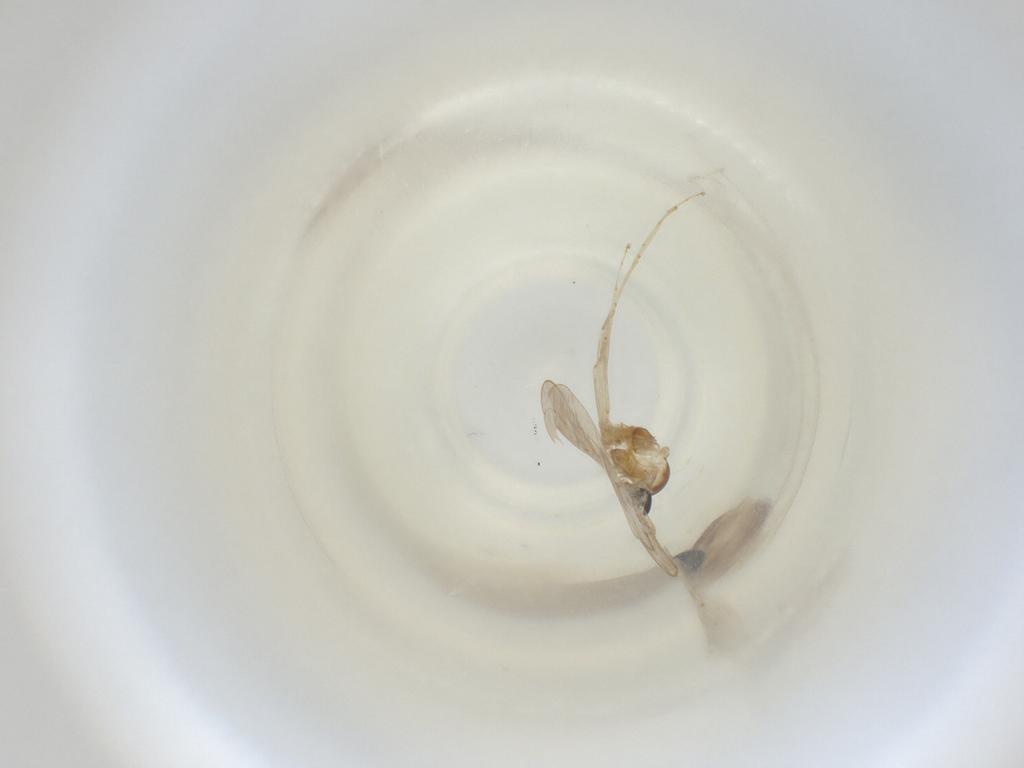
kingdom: Animalia
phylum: Arthropoda
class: Insecta
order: Diptera
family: Cecidomyiidae
